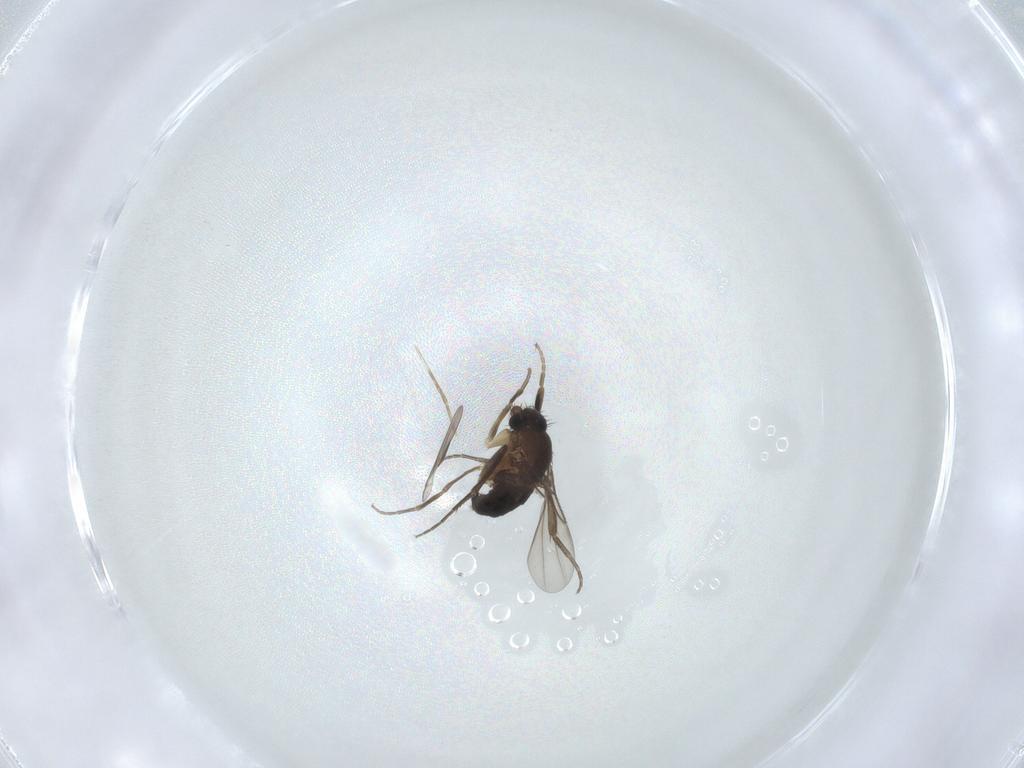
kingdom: Animalia
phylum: Arthropoda
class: Insecta
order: Diptera
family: Phoridae
